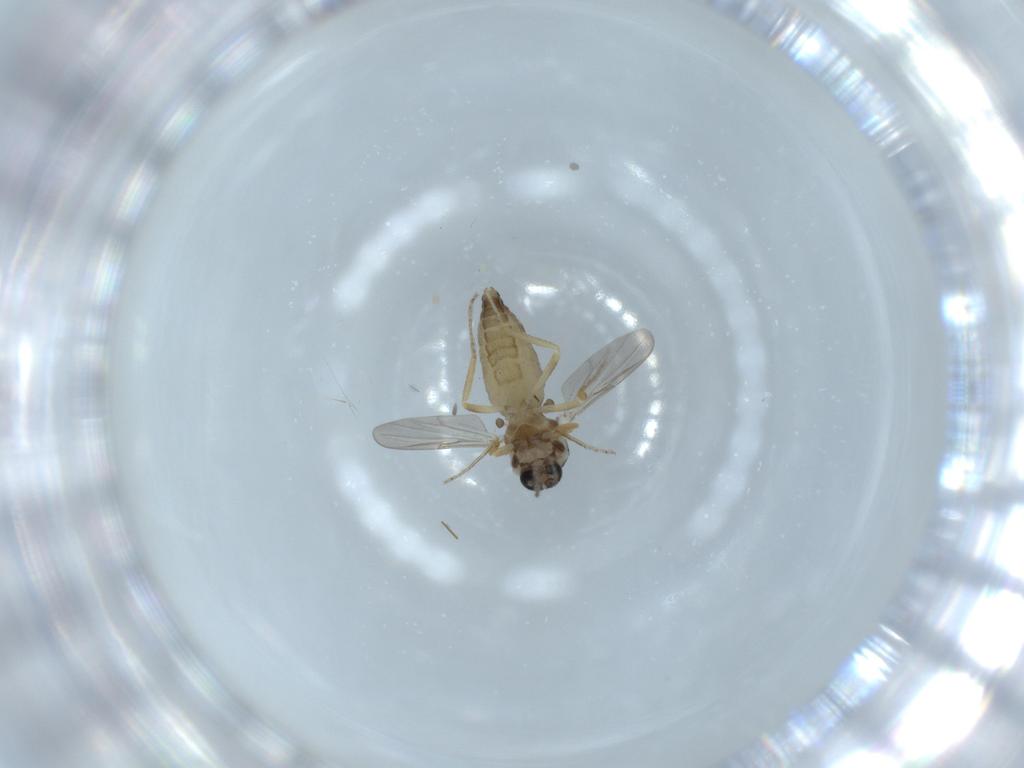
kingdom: Animalia
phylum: Arthropoda
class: Insecta
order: Diptera
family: Ceratopogonidae
